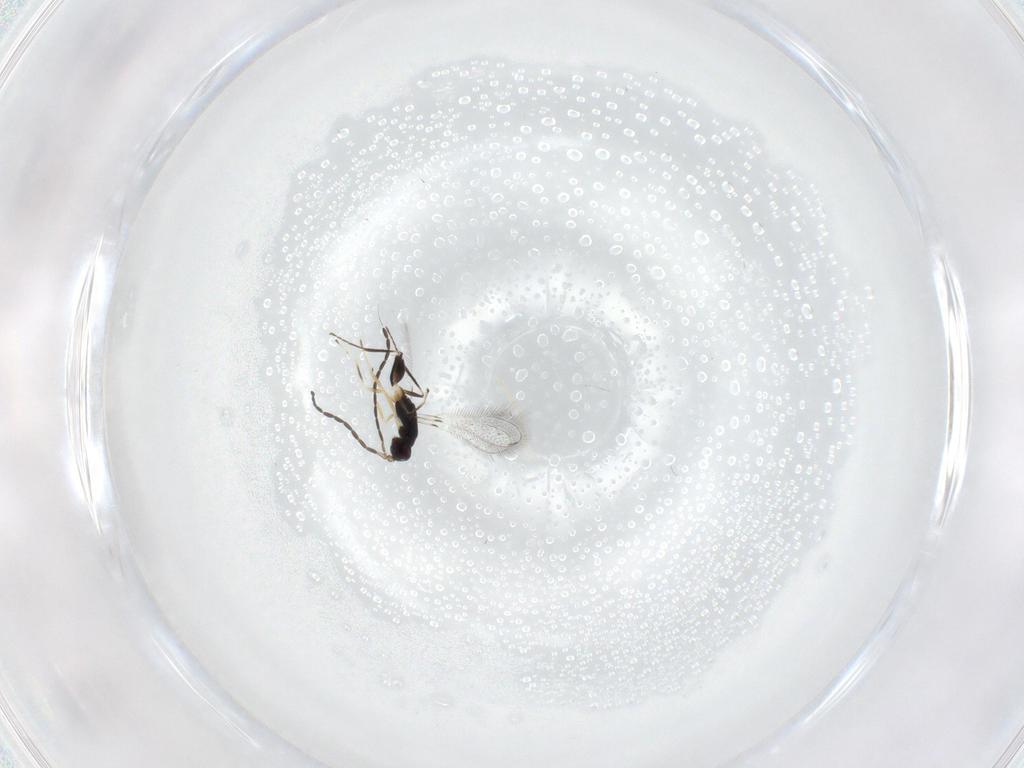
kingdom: Animalia
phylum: Arthropoda
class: Insecta
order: Hymenoptera
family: Mymaridae
